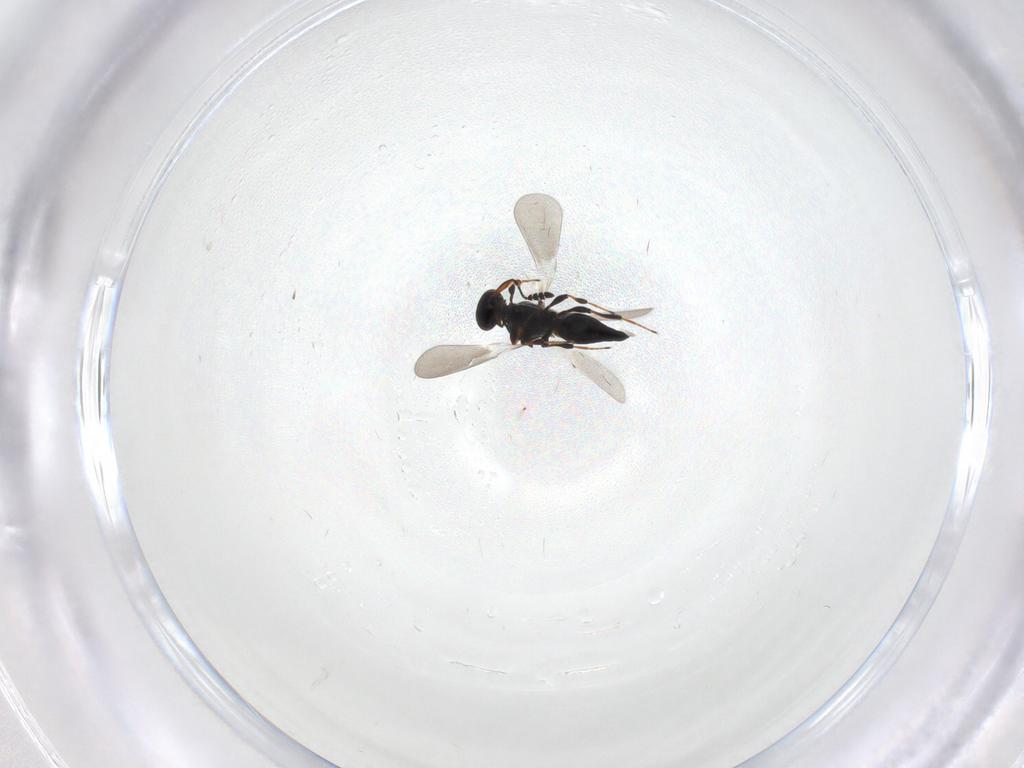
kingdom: Animalia
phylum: Arthropoda
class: Insecta
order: Hymenoptera
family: Platygastridae
